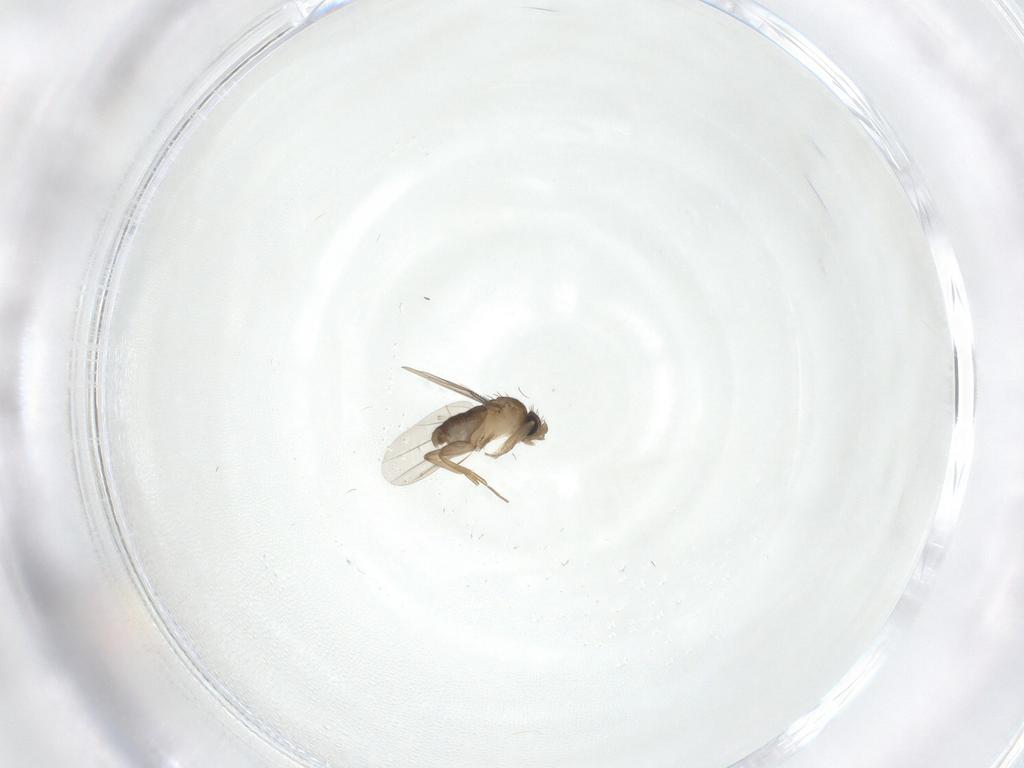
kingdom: Animalia
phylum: Arthropoda
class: Insecta
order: Diptera
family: Phoridae
